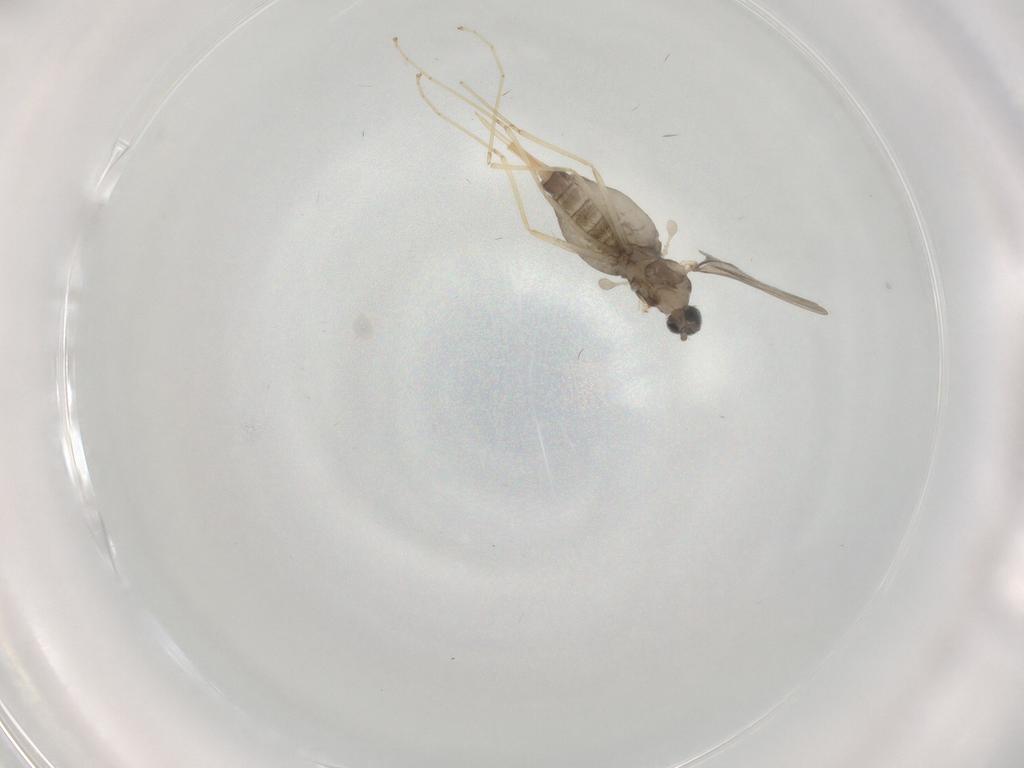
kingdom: Animalia
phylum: Arthropoda
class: Insecta
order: Diptera
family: Cecidomyiidae
